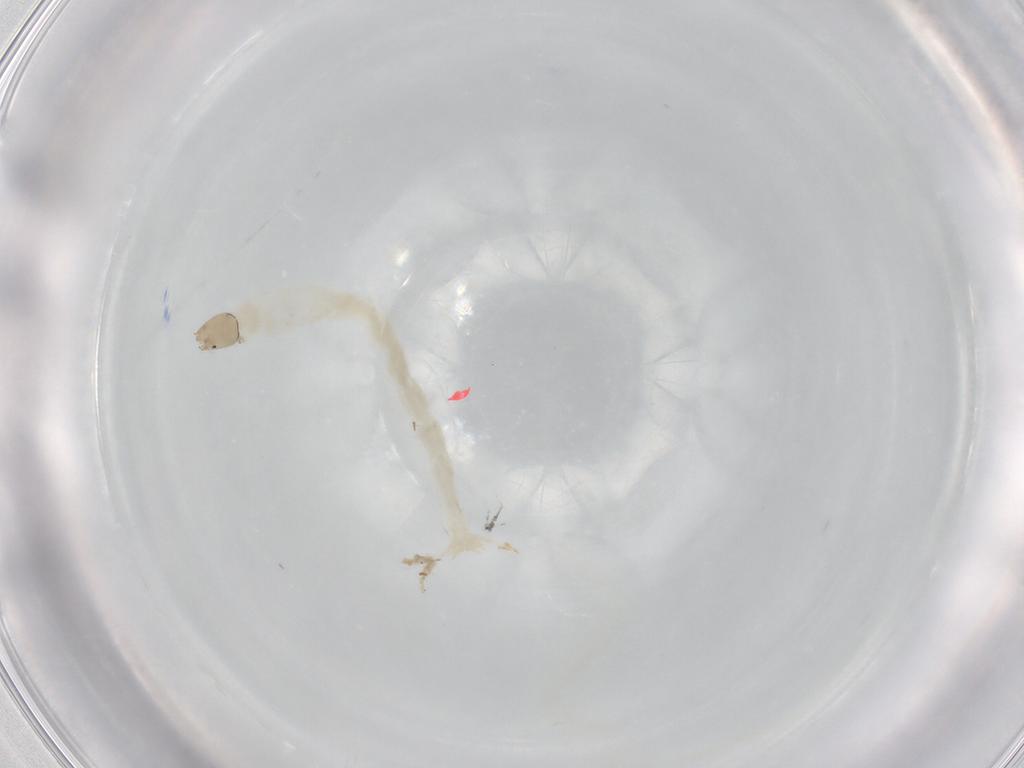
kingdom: Animalia
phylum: Arthropoda
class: Insecta
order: Diptera
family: Chironomidae
